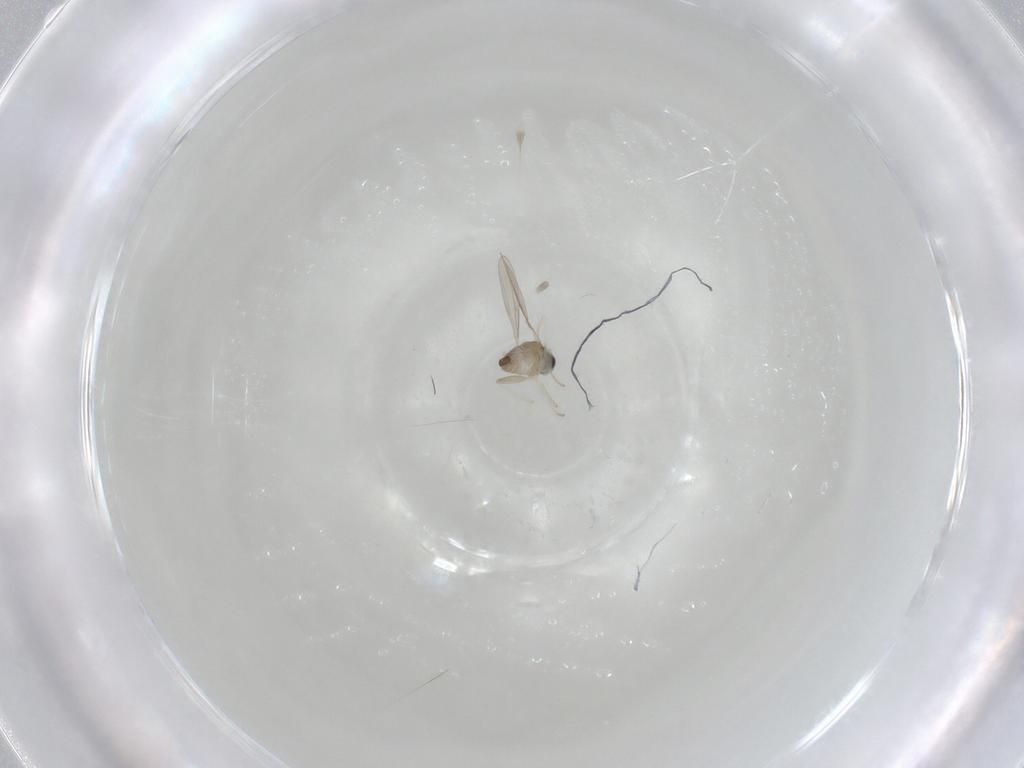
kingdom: Animalia
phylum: Arthropoda
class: Insecta
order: Diptera
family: Cecidomyiidae
